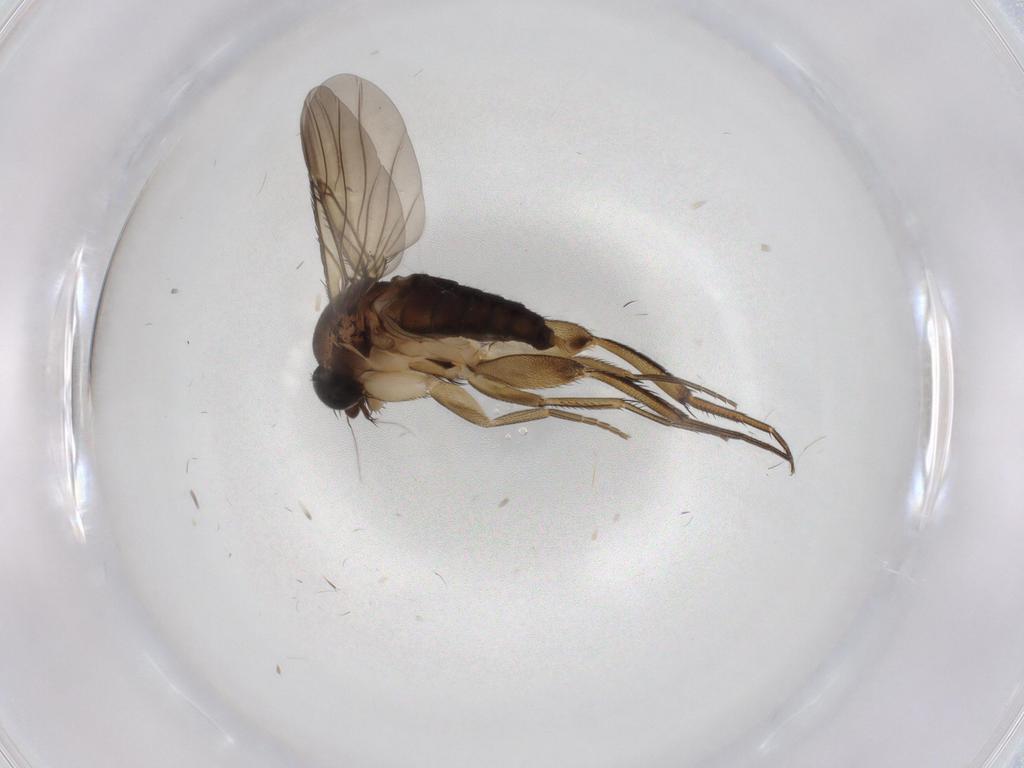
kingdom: Animalia
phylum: Arthropoda
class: Insecta
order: Diptera
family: Phoridae
